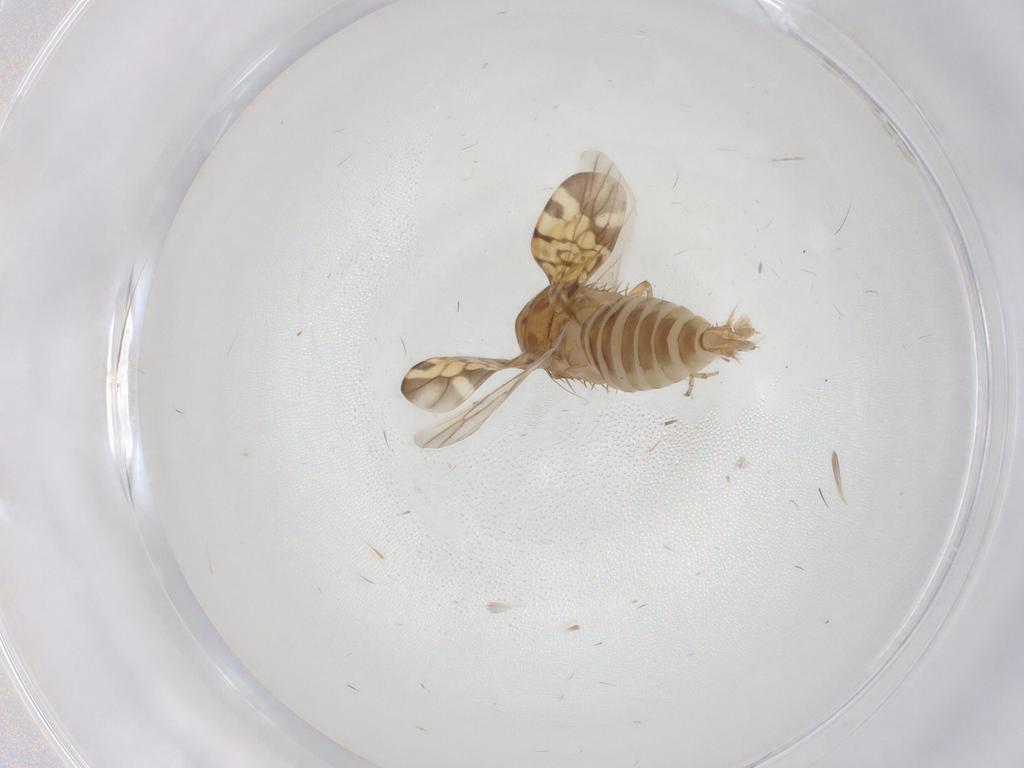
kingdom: Animalia
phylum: Arthropoda
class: Insecta
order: Hemiptera
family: Cicadellidae
